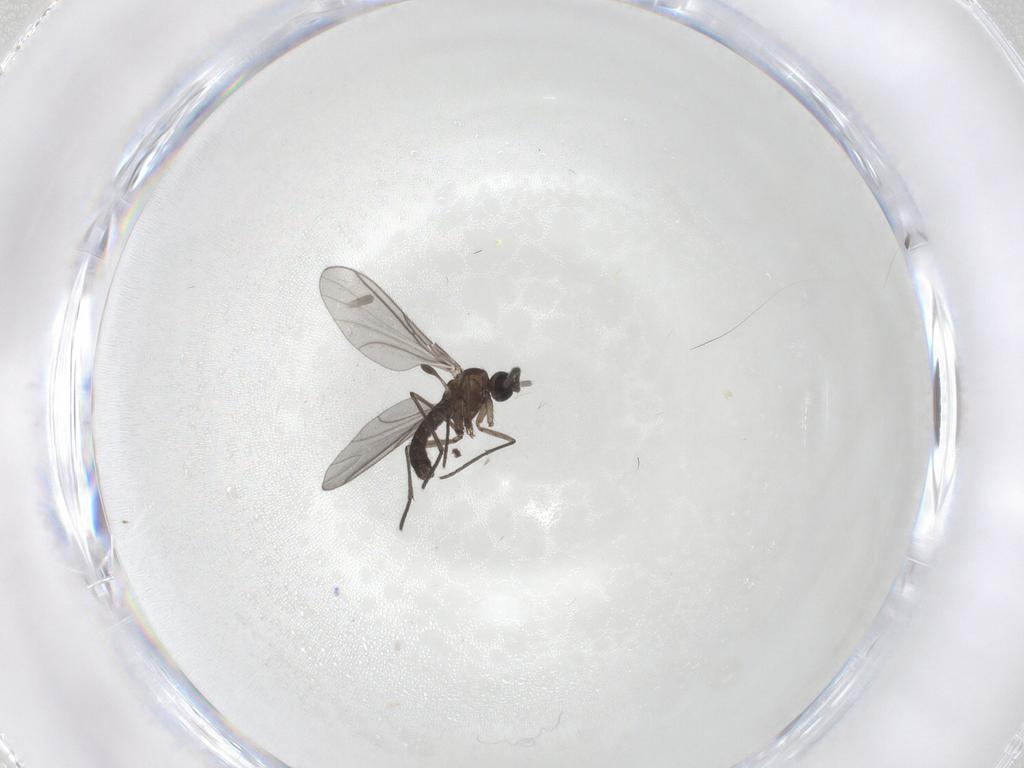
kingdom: Animalia
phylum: Arthropoda
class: Insecta
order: Diptera
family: Sciaridae
